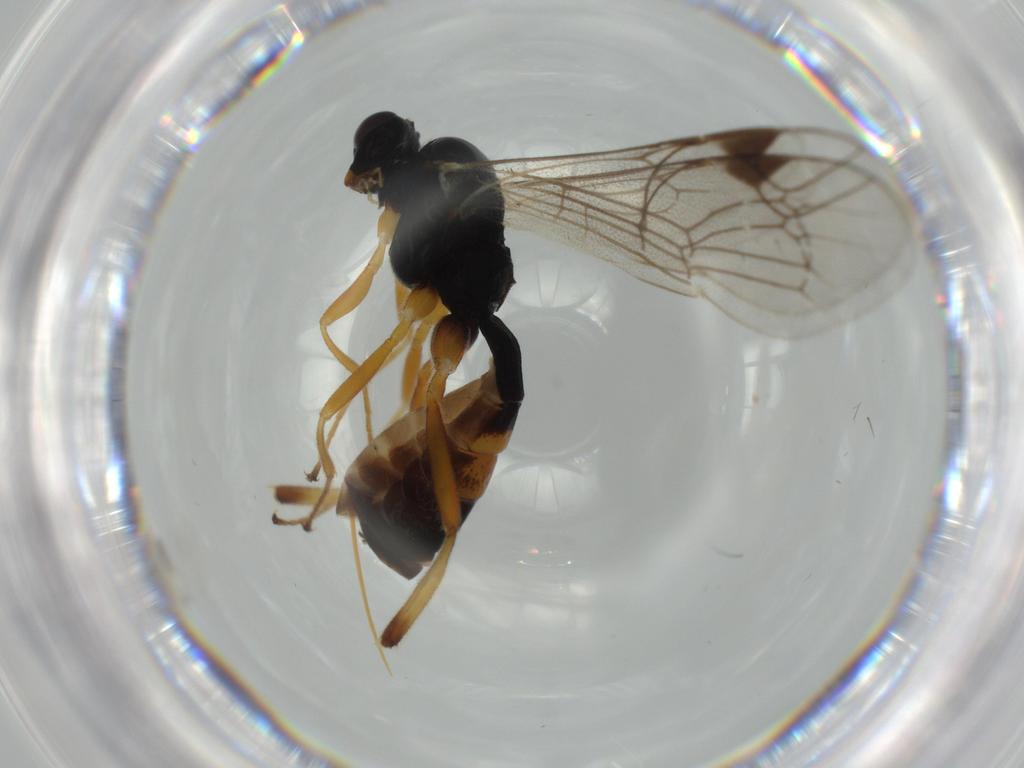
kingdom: Animalia
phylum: Arthropoda
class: Insecta
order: Hymenoptera
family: Ichneumonidae
